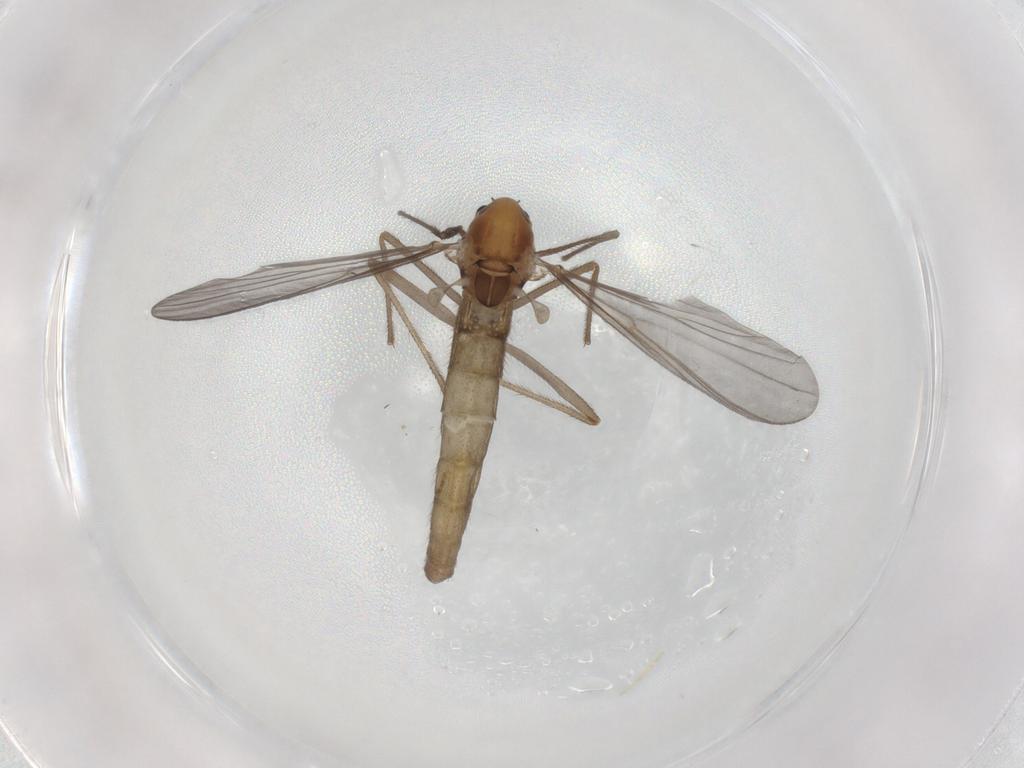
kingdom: Animalia
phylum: Arthropoda
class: Insecta
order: Diptera
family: Chironomidae
